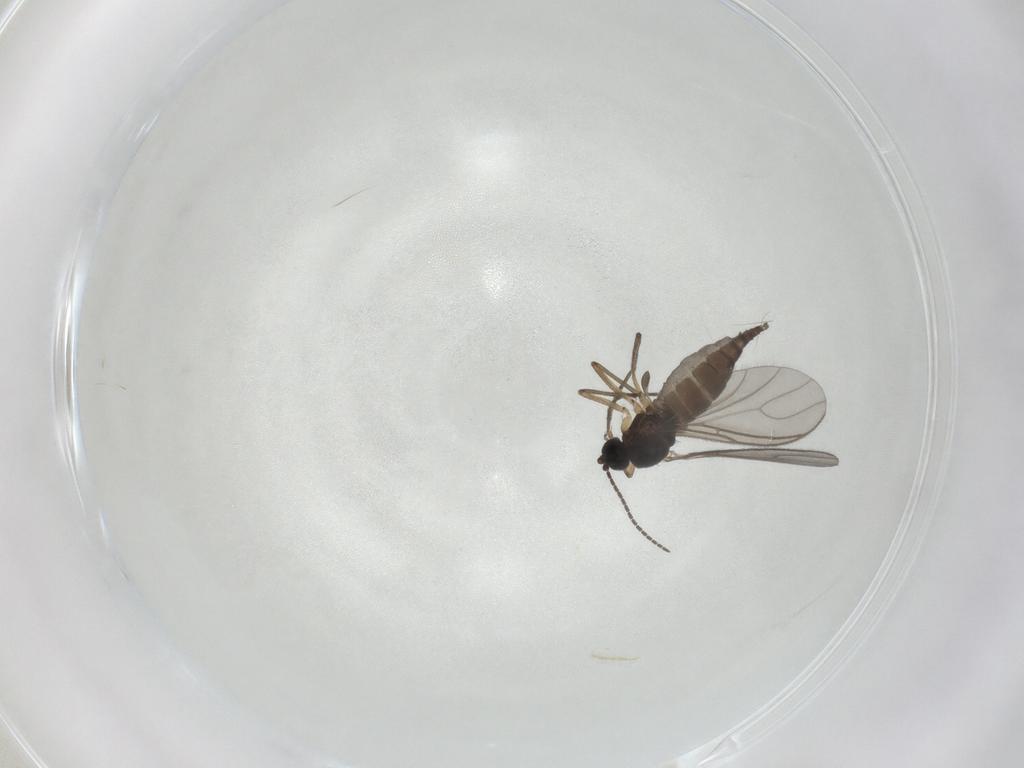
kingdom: Animalia
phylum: Arthropoda
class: Insecta
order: Diptera
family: Sciaridae
